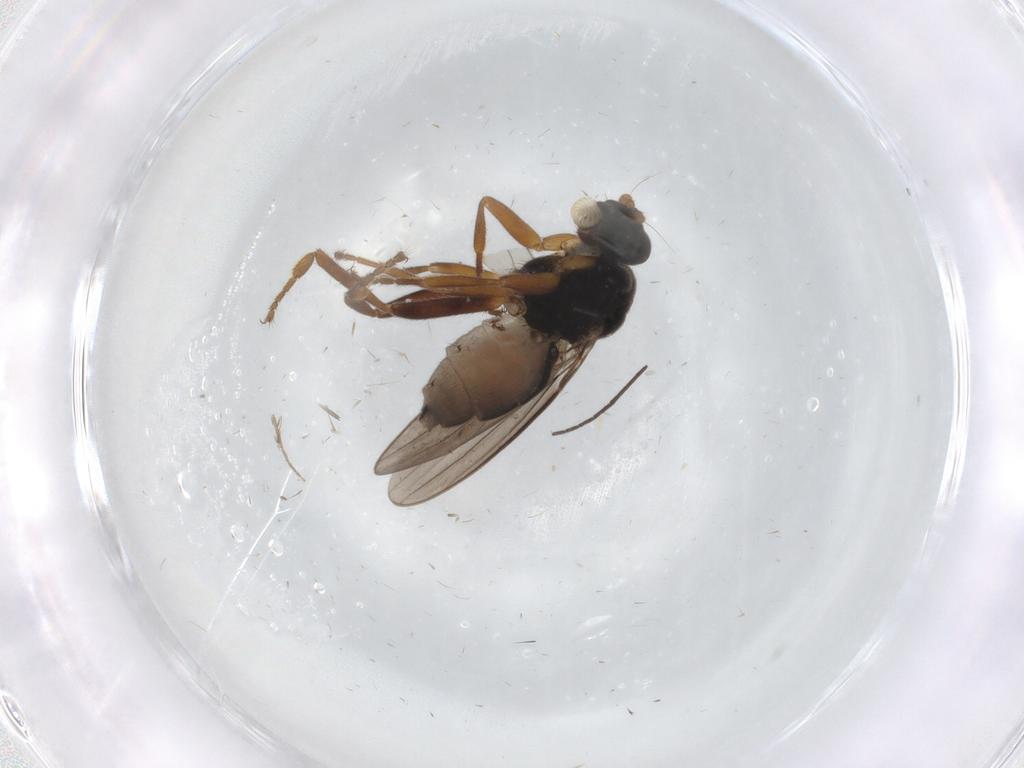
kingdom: Animalia
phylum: Arthropoda
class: Insecta
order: Diptera
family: Sphaeroceridae
